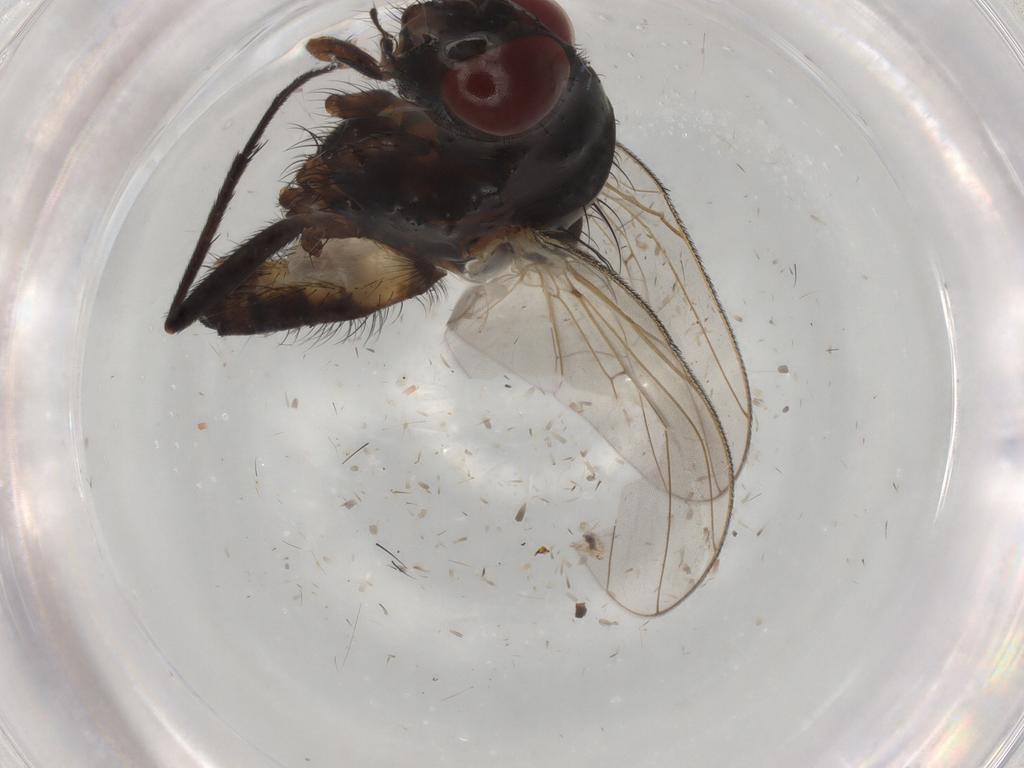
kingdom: Animalia
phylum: Arthropoda
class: Insecta
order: Diptera
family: Anthomyiidae
